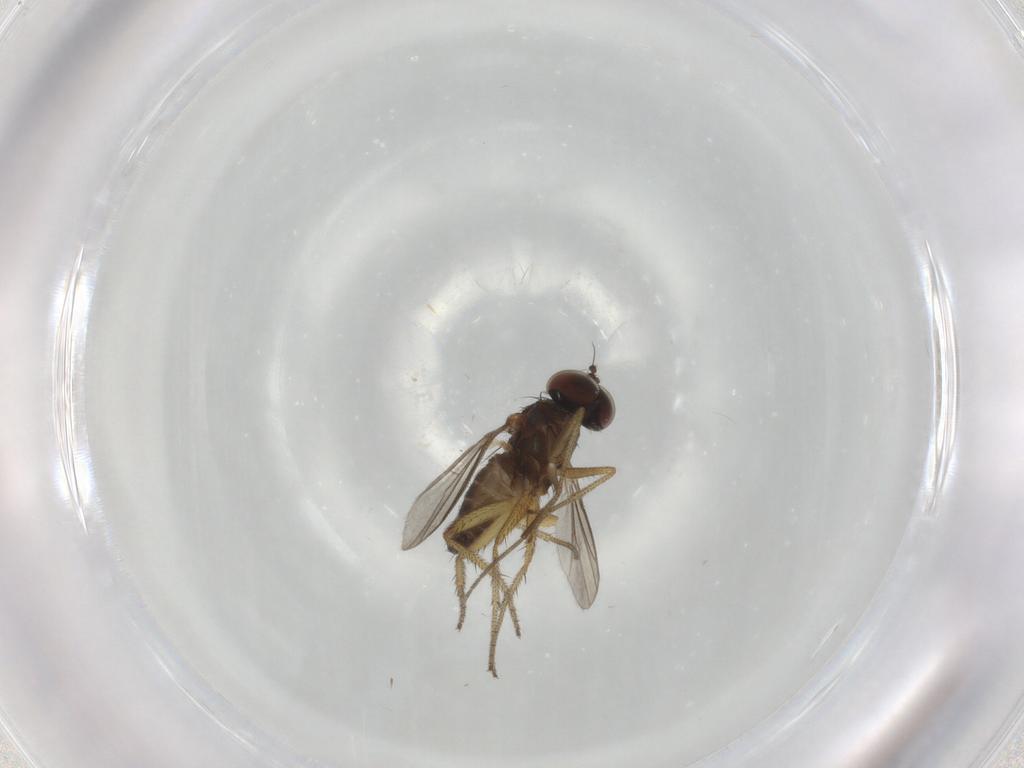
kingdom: Animalia
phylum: Arthropoda
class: Insecta
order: Diptera
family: Dolichopodidae
